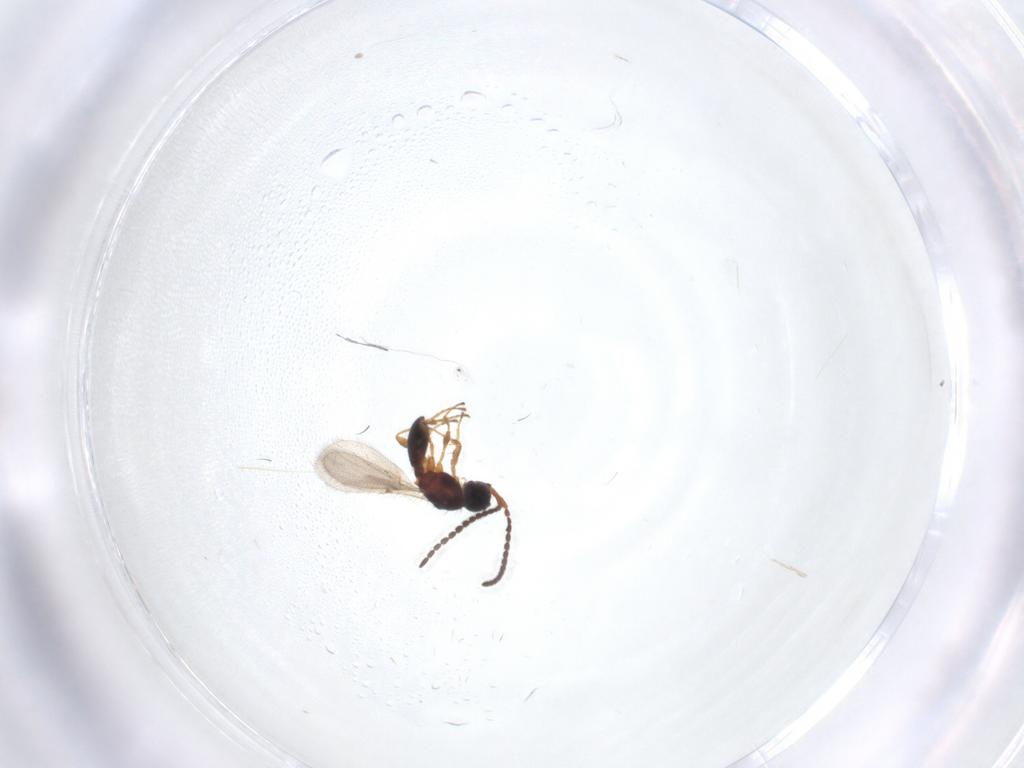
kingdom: Animalia
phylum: Arthropoda
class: Insecta
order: Hymenoptera
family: Diapriidae
